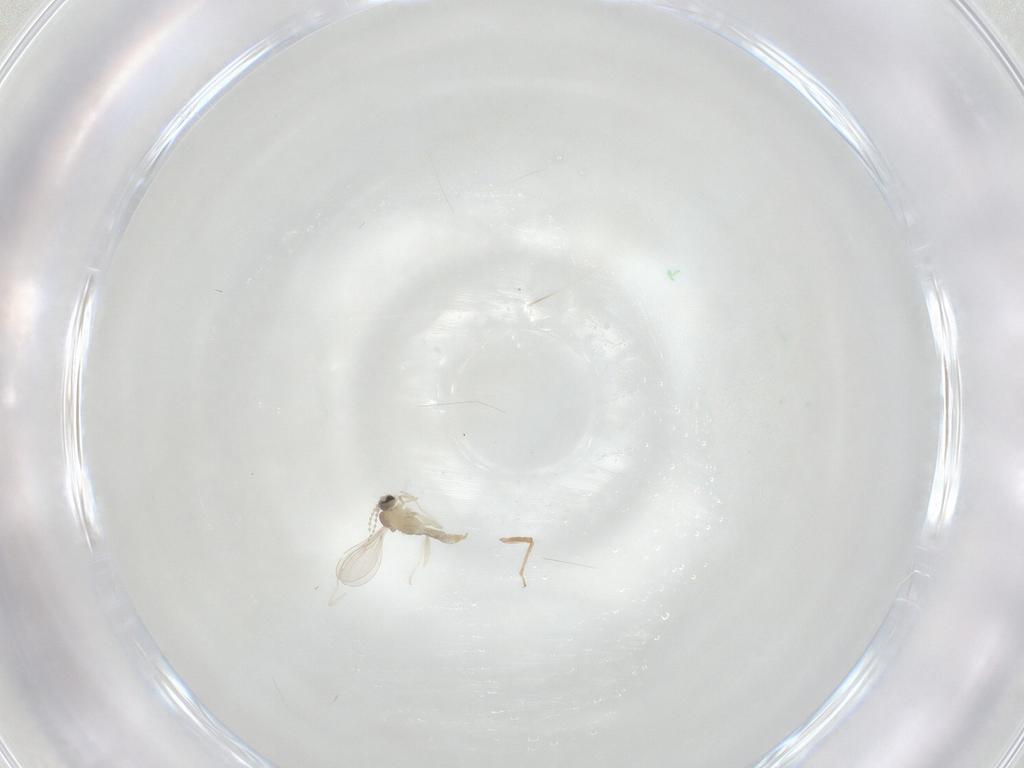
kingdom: Animalia
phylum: Arthropoda
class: Insecta
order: Diptera
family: Cecidomyiidae
